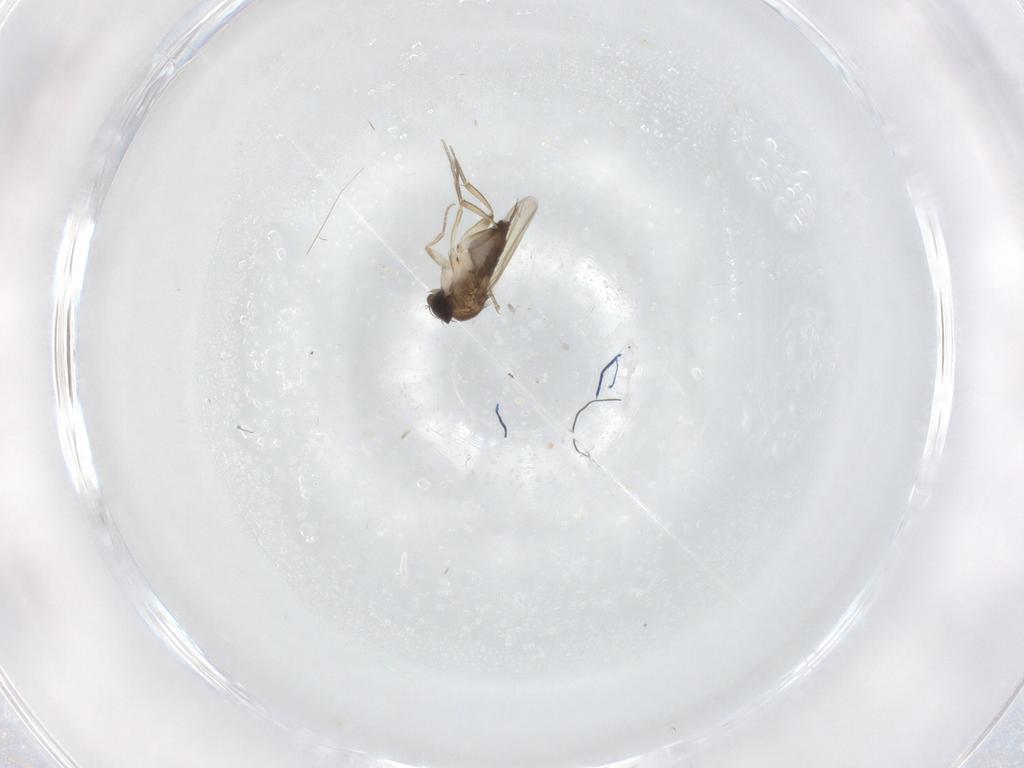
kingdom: Animalia
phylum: Arthropoda
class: Insecta
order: Diptera
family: Phoridae
